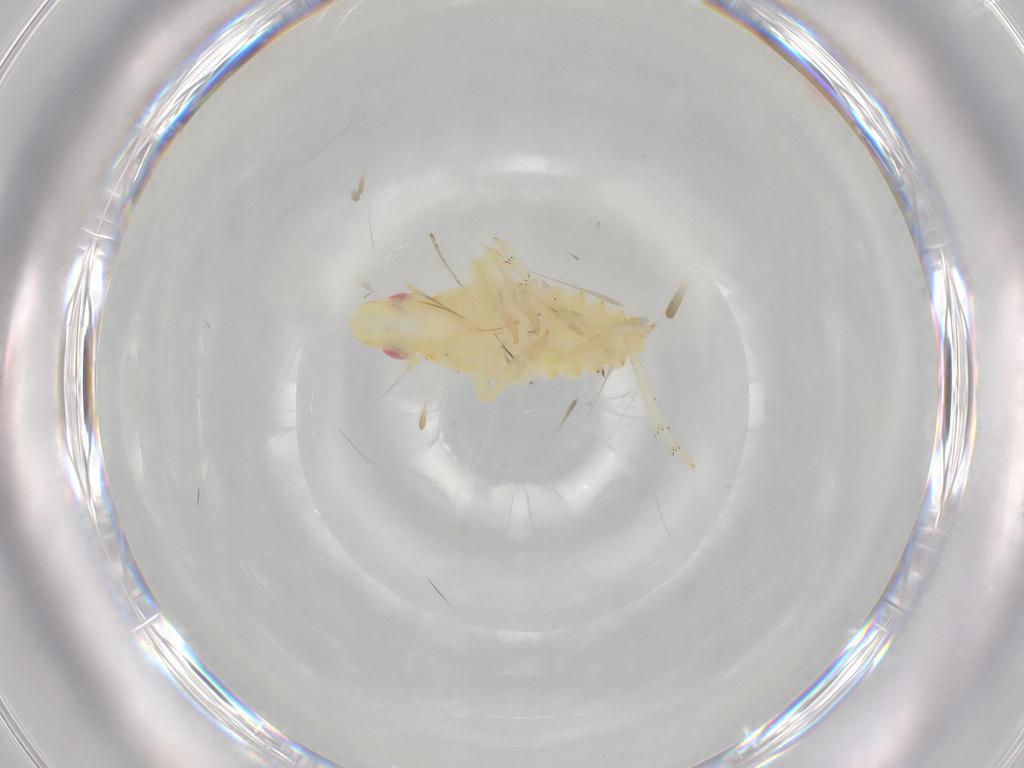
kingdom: Animalia
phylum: Arthropoda
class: Insecta
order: Hemiptera
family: Tropiduchidae
